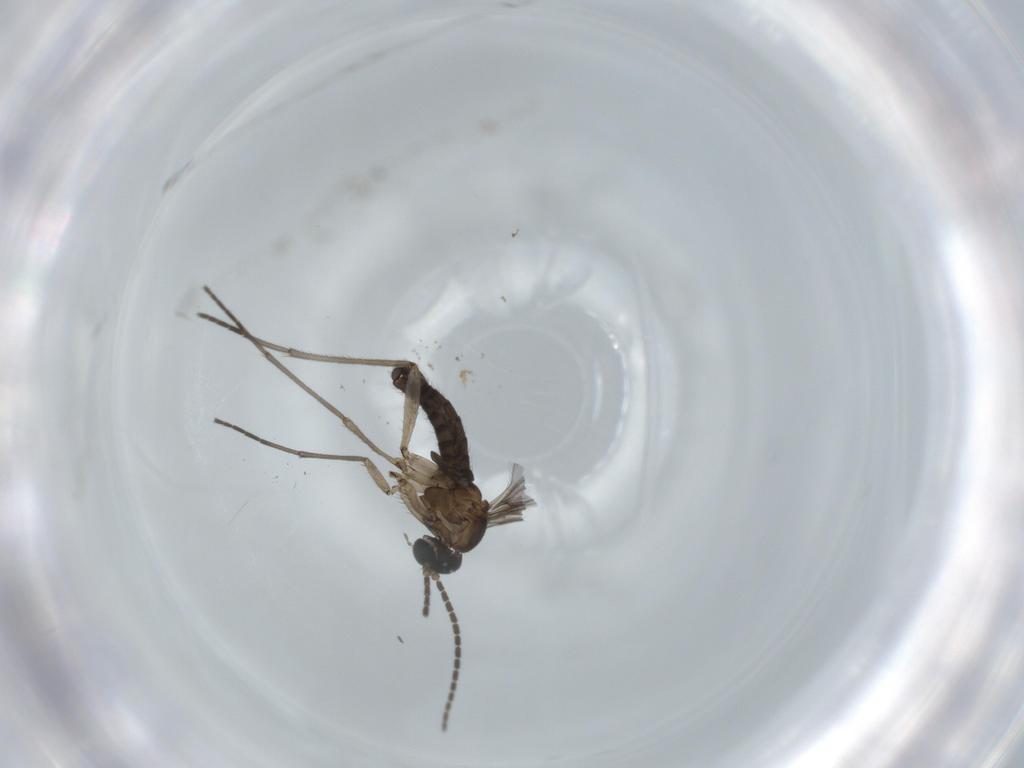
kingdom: Animalia
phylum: Arthropoda
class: Insecta
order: Diptera
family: Sciaridae
